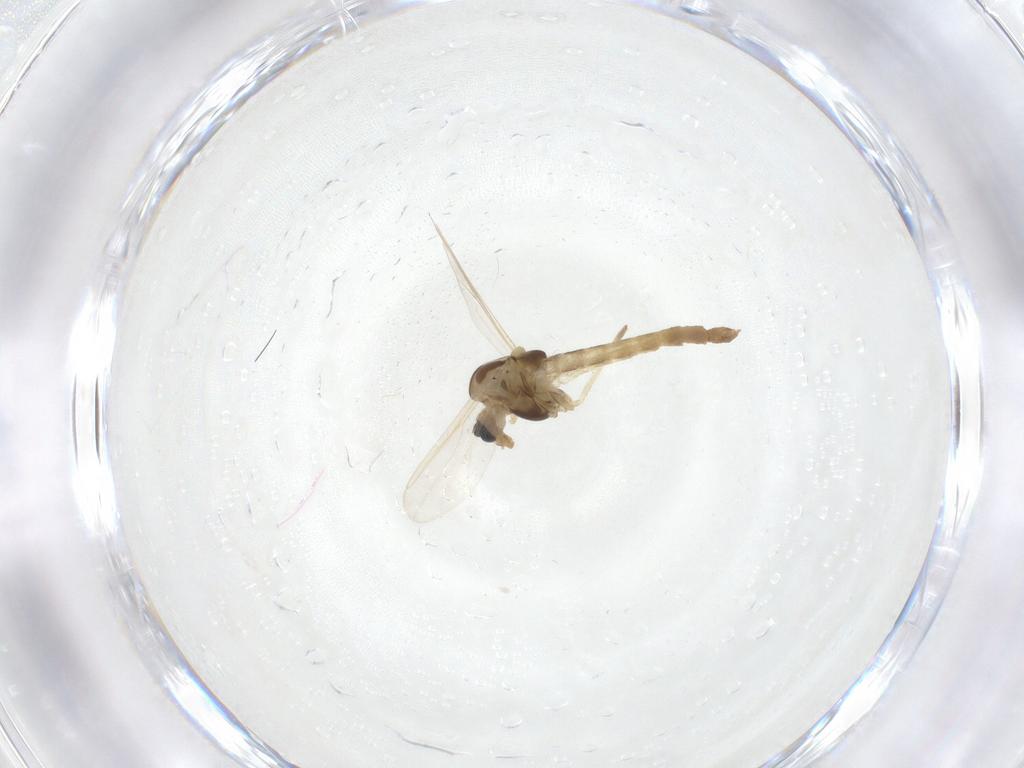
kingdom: Animalia
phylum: Arthropoda
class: Insecta
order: Diptera
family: Chironomidae
